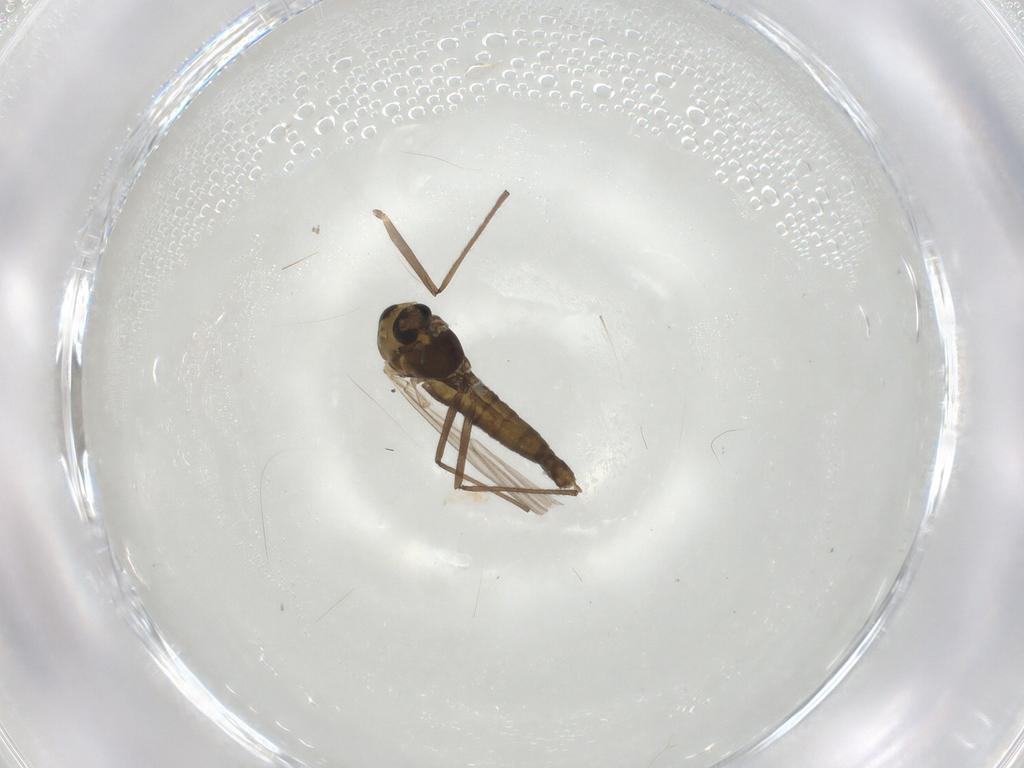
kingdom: Animalia
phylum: Arthropoda
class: Insecta
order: Diptera
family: Chironomidae
